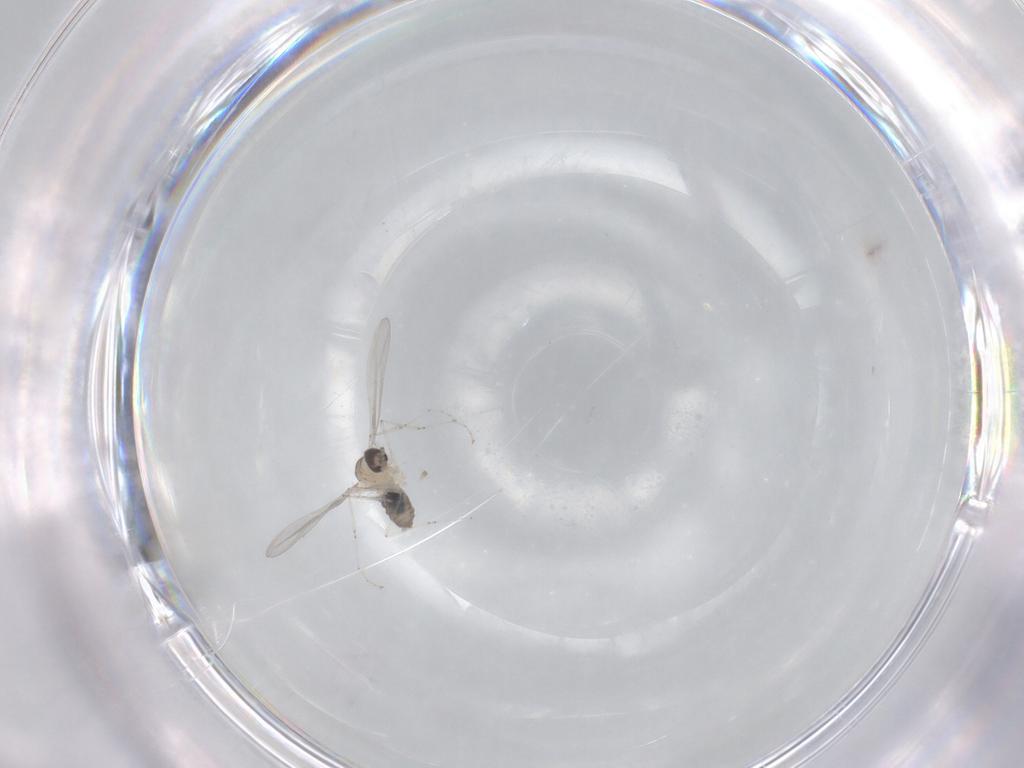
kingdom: Animalia
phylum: Arthropoda
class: Insecta
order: Diptera
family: Cecidomyiidae
